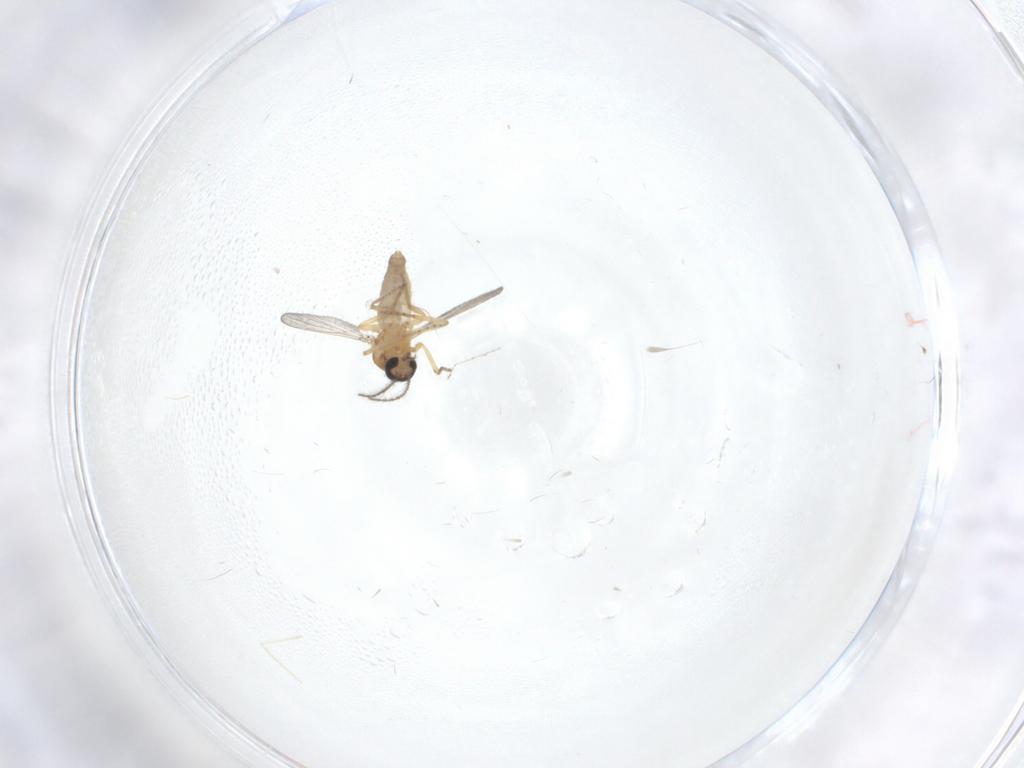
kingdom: Animalia
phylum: Arthropoda
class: Insecta
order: Diptera
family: Ceratopogonidae
